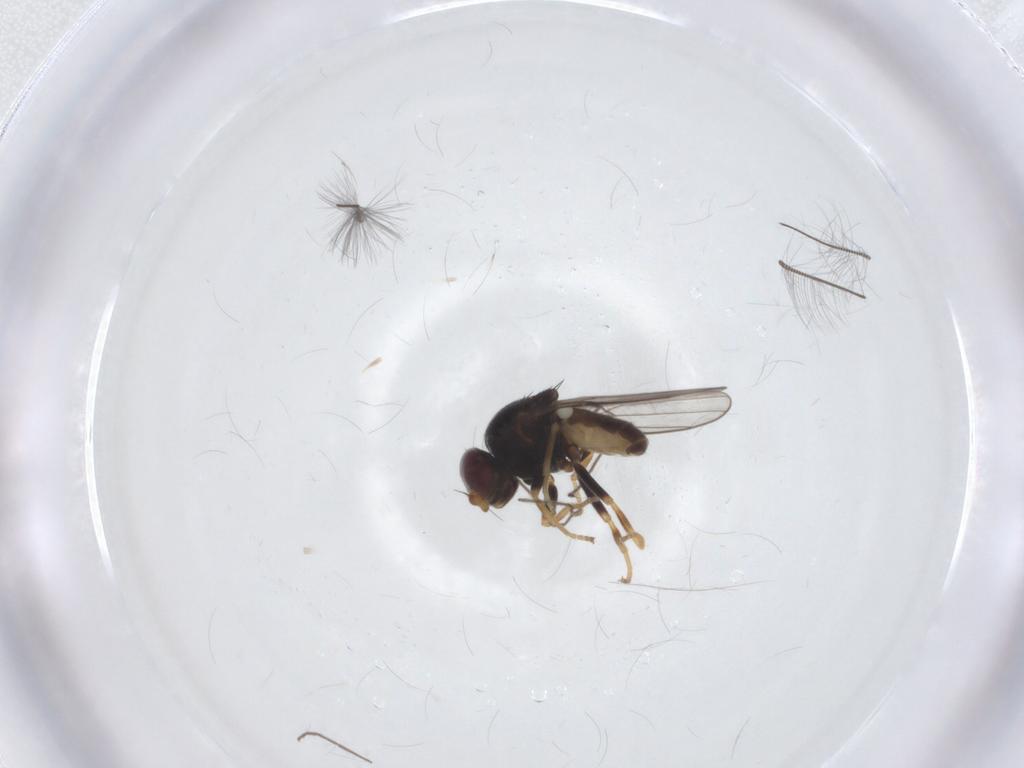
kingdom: Animalia
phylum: Arthropoda
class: Insecta
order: Diptera
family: Chloropidae
